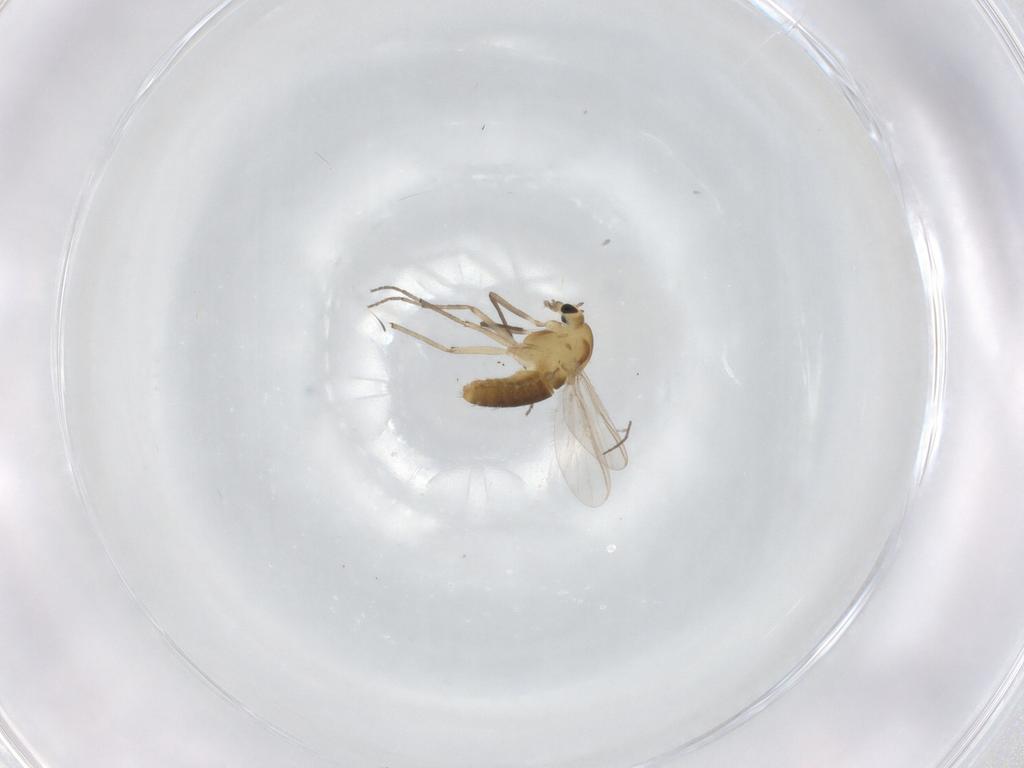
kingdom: Animalia
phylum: Arthropoda
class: Insecta
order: Diptera
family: Chironomidae
